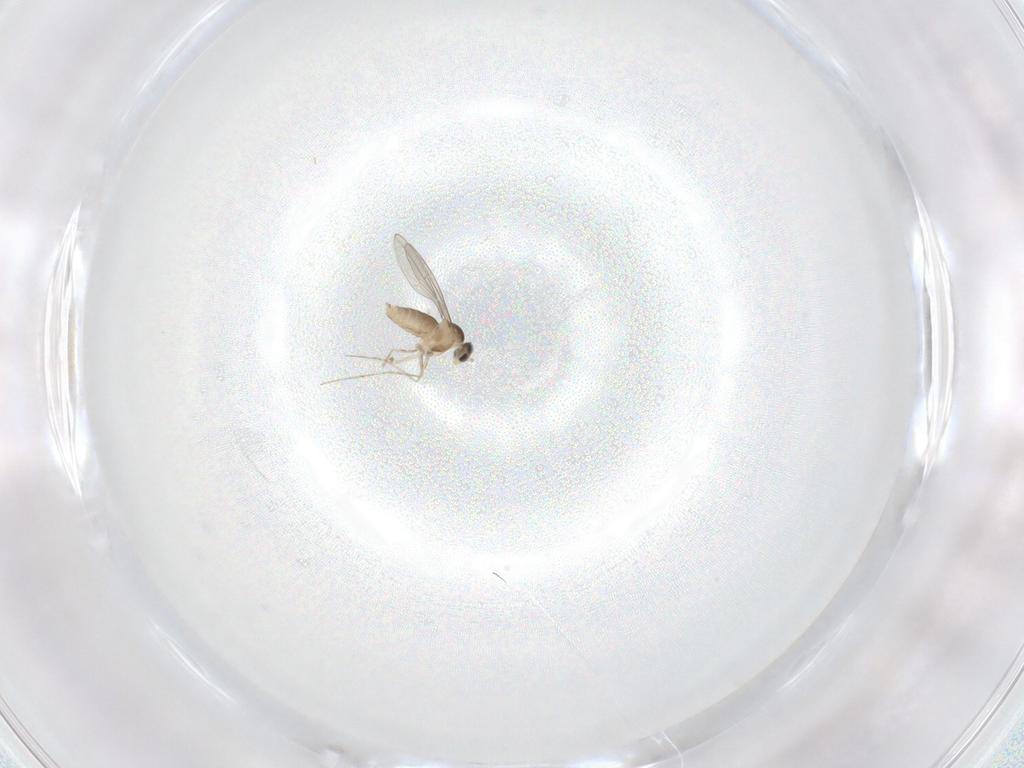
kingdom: Animalia
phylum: Arthropoda
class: Insecta
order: Diptera
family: Cecidomyiidae
